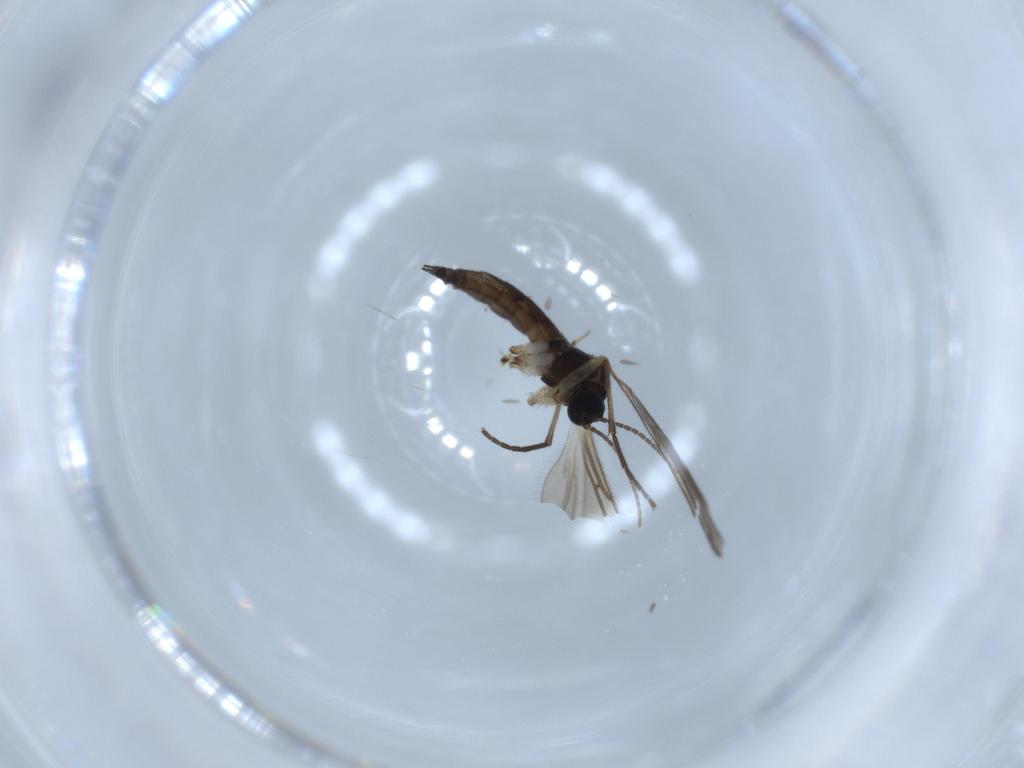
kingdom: Animalia
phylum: Arthropoda
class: Insecta
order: Diptera
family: Sciaridae
